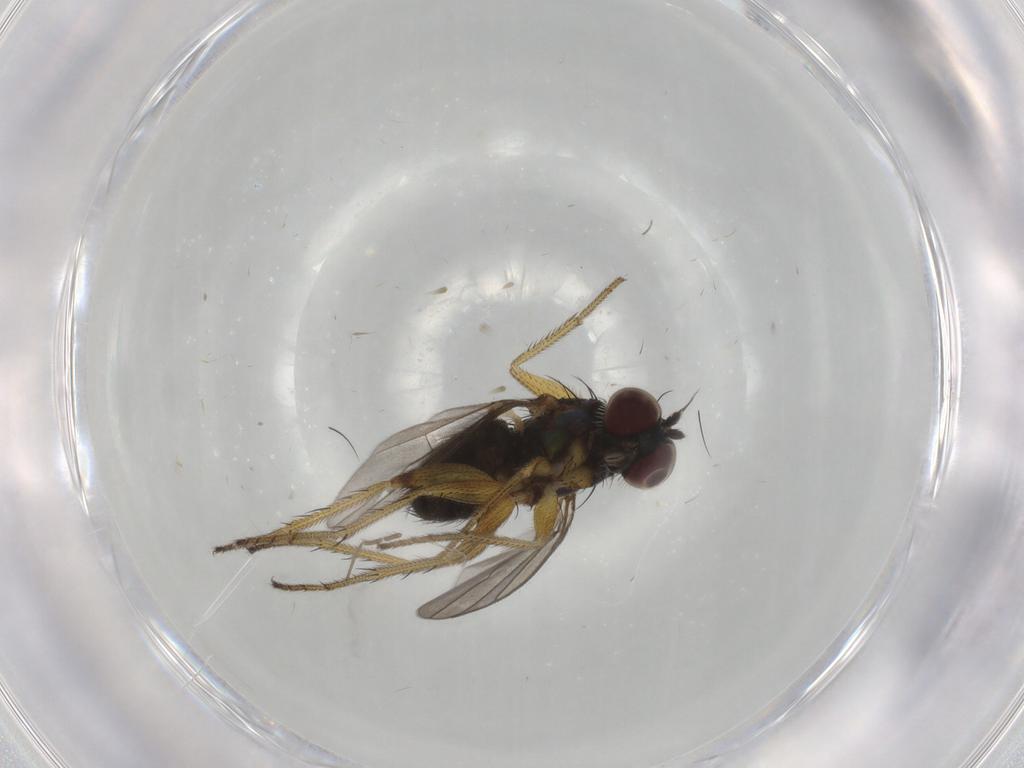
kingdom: Animalia
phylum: Arthropoda
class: Insecta
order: Diptera
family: Dolichopodidae
